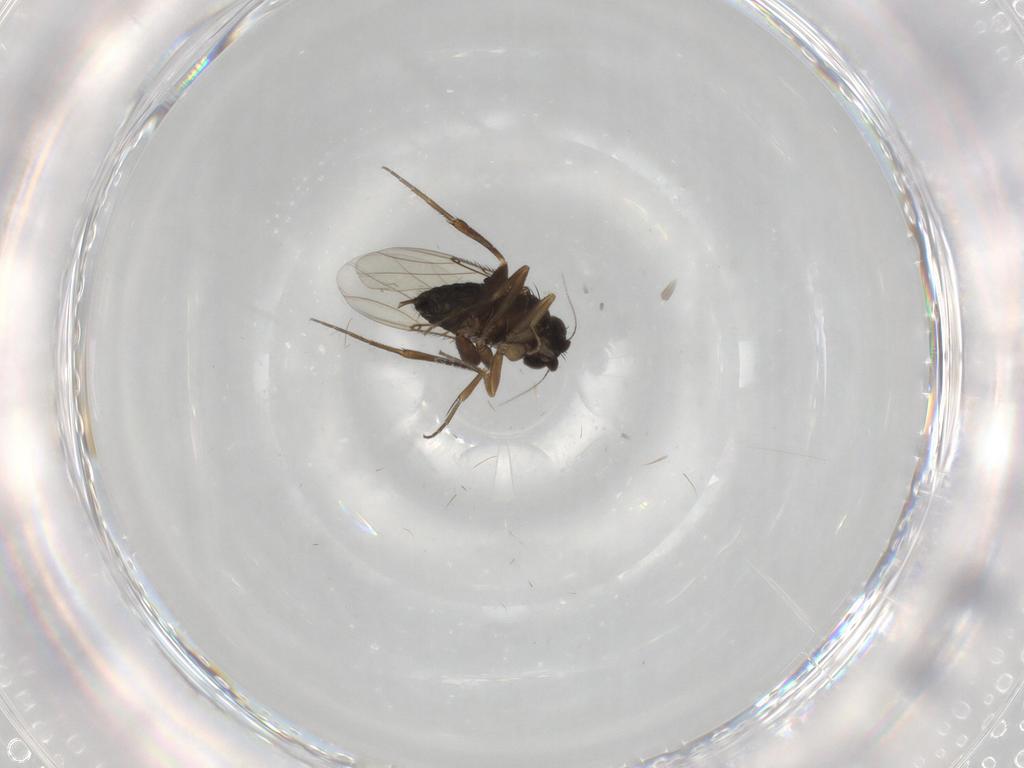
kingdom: Animalia
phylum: Arthropoda
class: Insecta
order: Diptera
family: Phoridae
